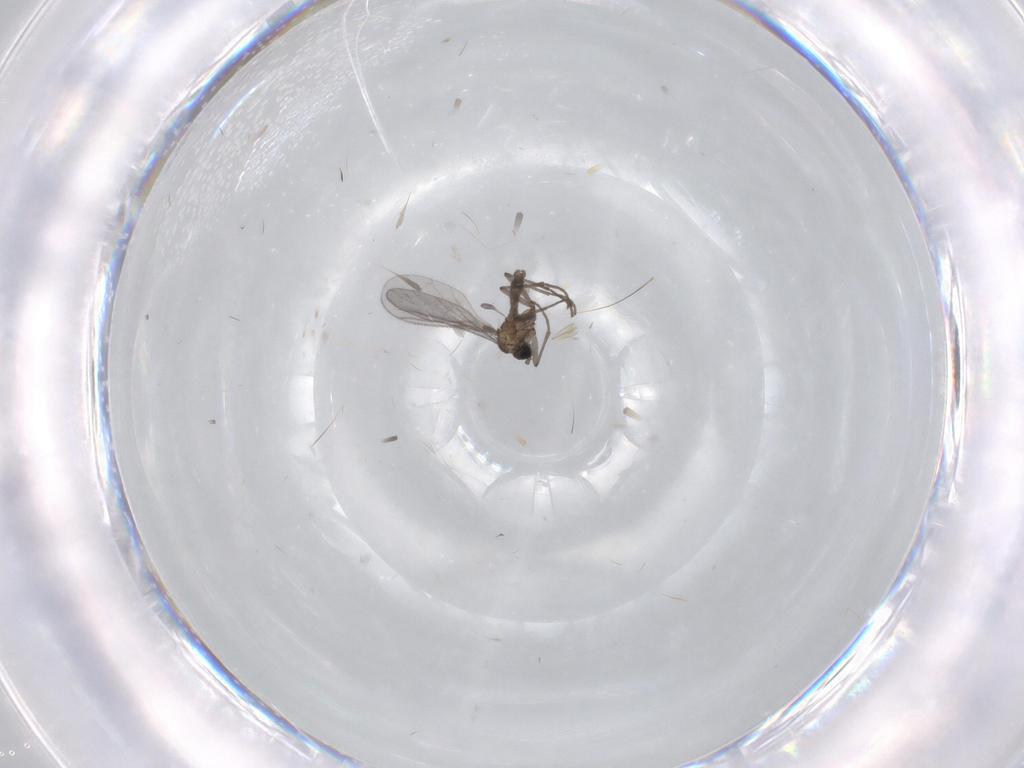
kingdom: Animalia
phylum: Arthropoda
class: Insecta
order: Diptera
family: Sciaridae
